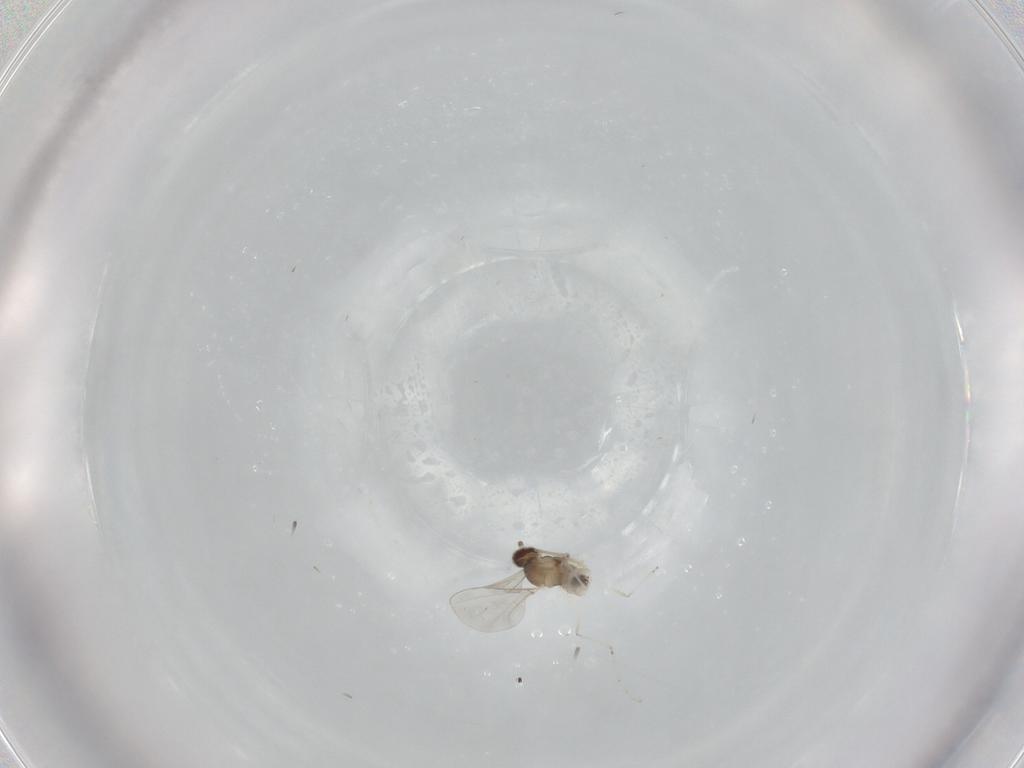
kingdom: Animalia
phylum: Arthropoda
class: Insecta
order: Diptera
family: Cecidomyiidae
